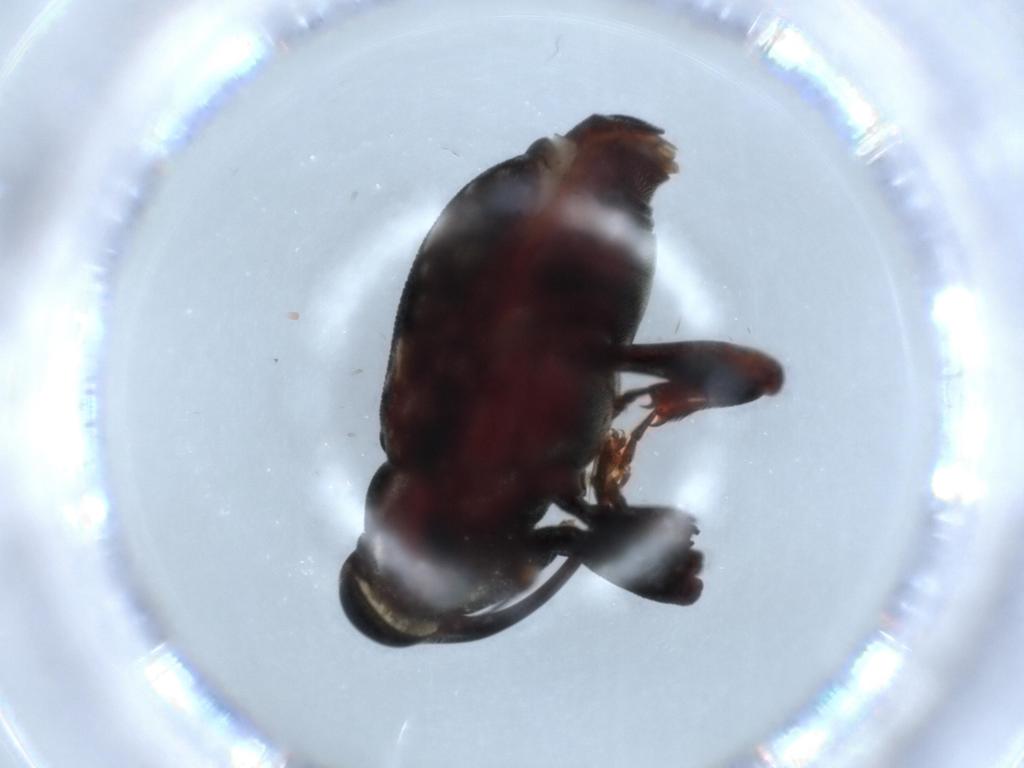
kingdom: Animalia
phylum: Arthropoda
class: Insecta
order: Coleoptera
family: Curculionidae
